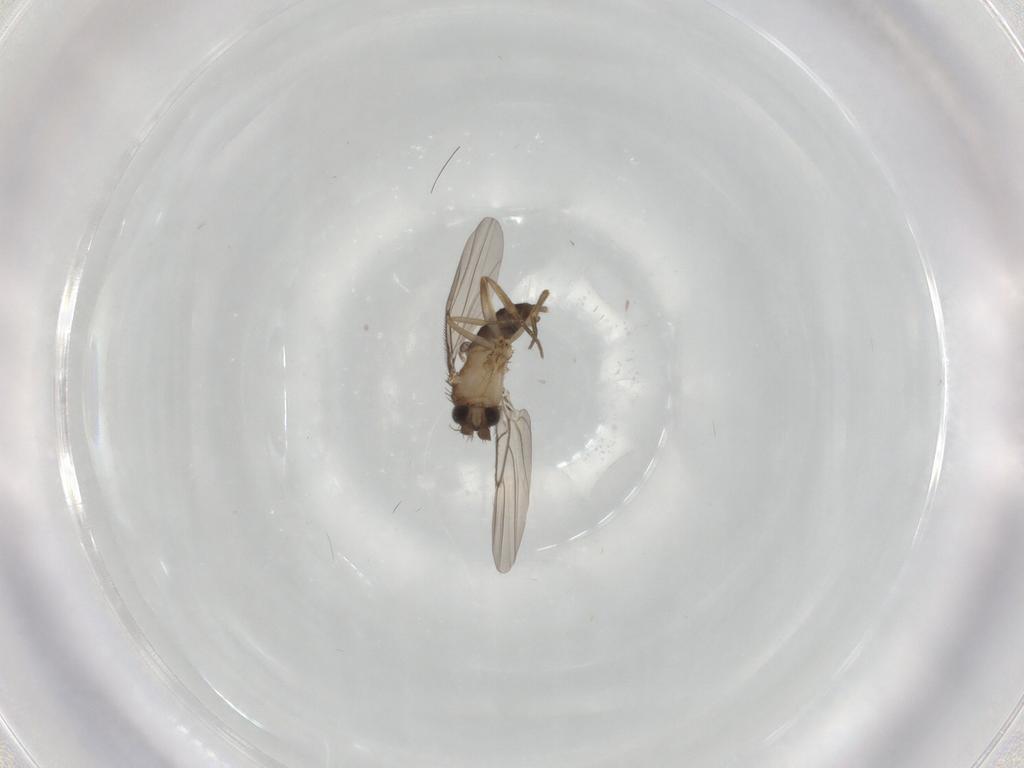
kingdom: Animalia
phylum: Arthropoda
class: Insecta
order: Diptera
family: Phoridae
